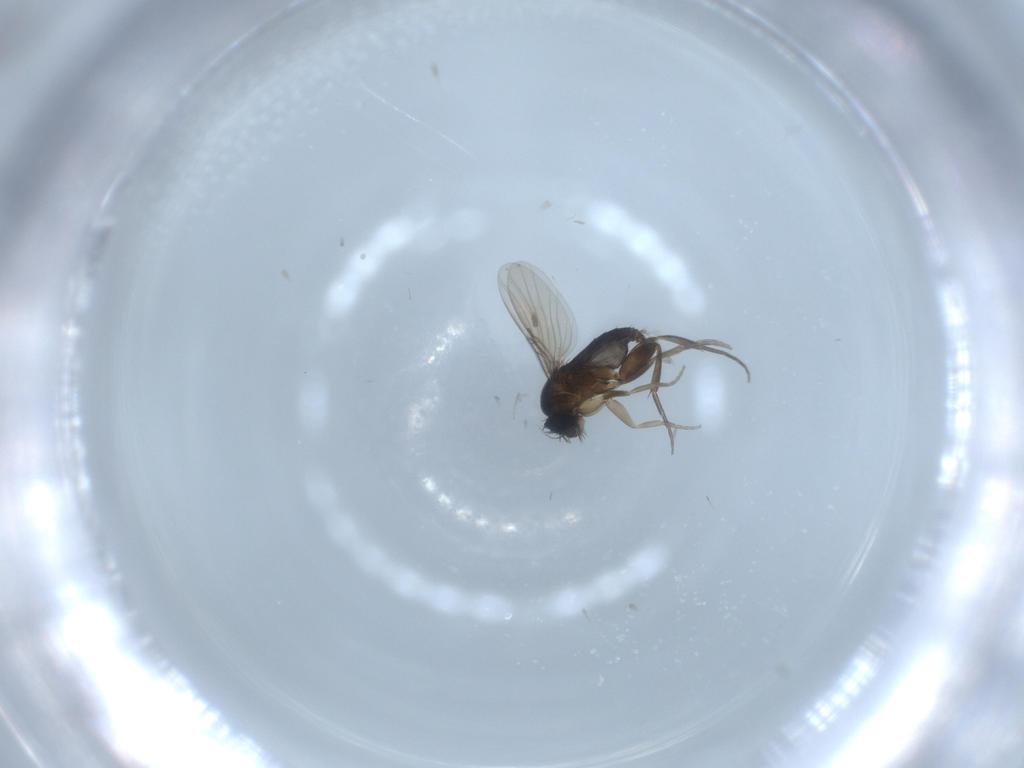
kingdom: Animalia
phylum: Arthropoda
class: Insecta
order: Diptera
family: Phoridae
